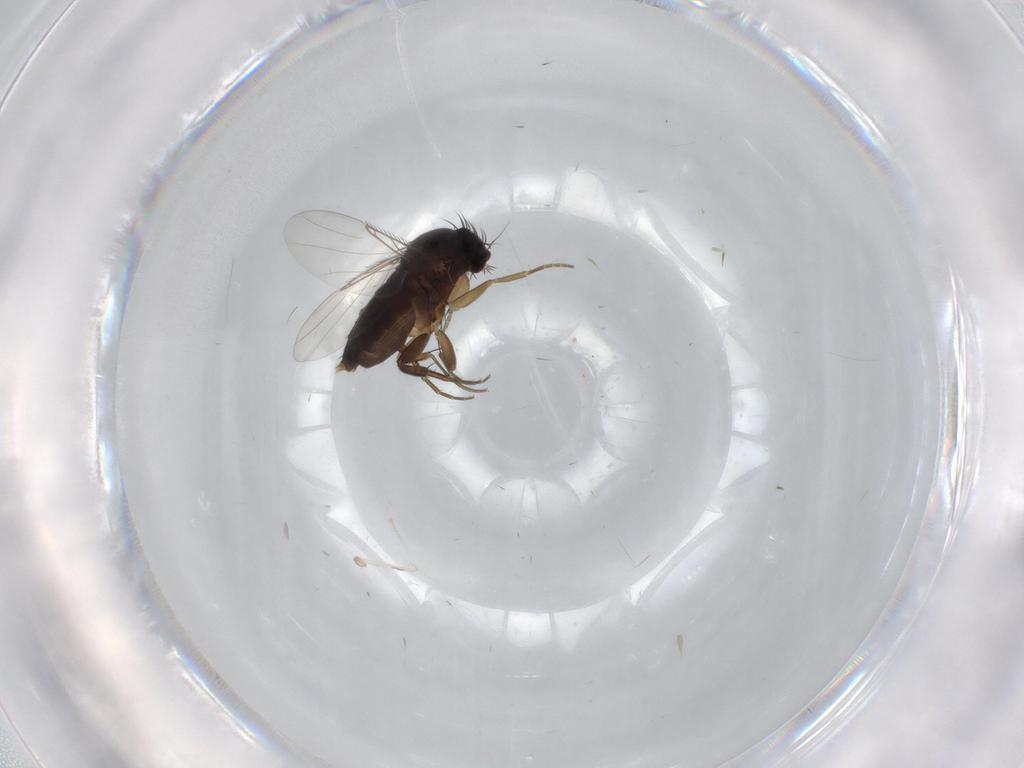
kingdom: Animalia
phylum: Arthropoda
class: Insecta
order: Diptera
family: Phoridae
